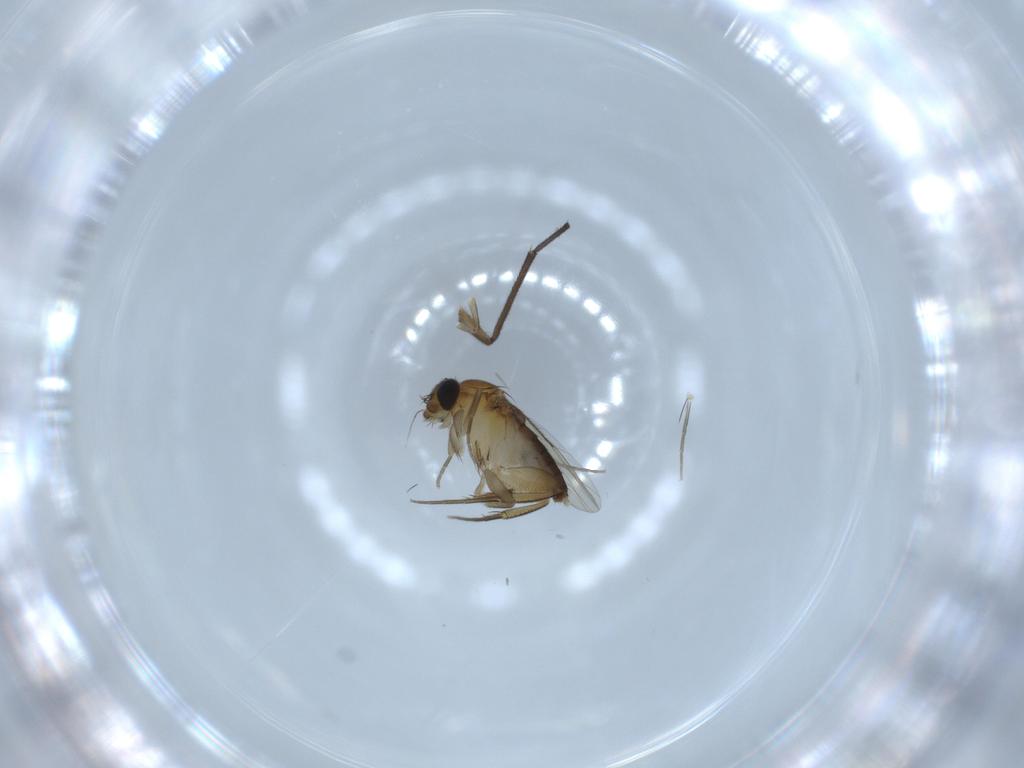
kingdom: Animalia
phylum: Arthropoda
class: Insecta
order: Diptera
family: Phoridae
